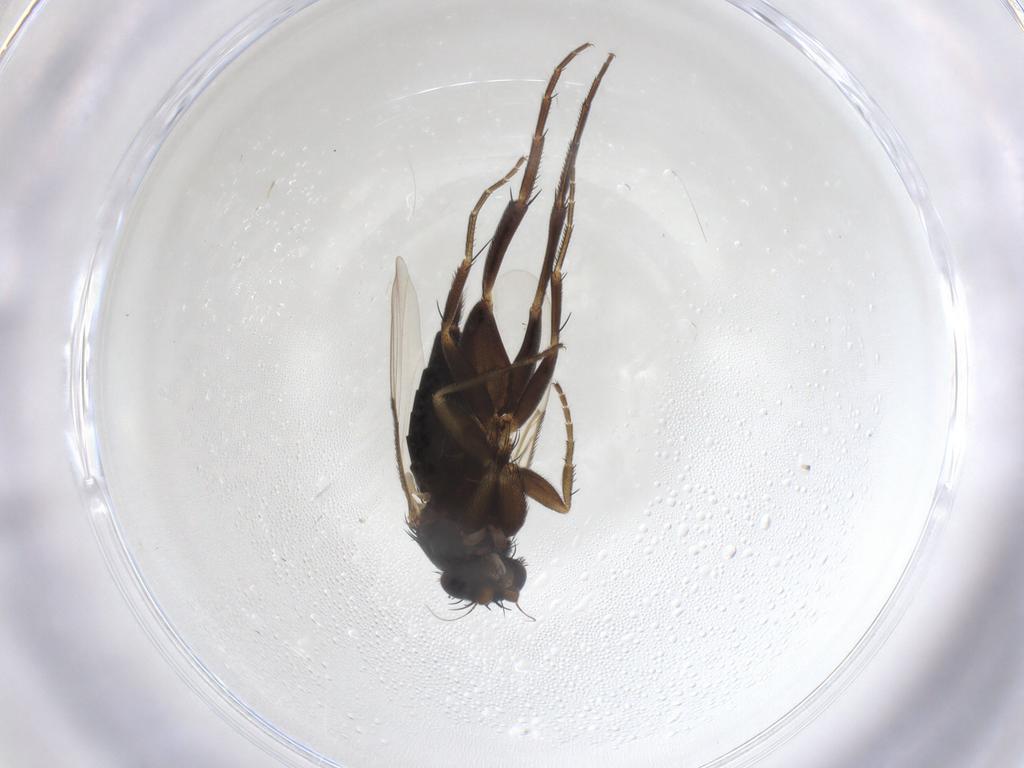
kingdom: Animalia
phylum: Arthropoda
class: Insecta
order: Diptera
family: Phoridae
